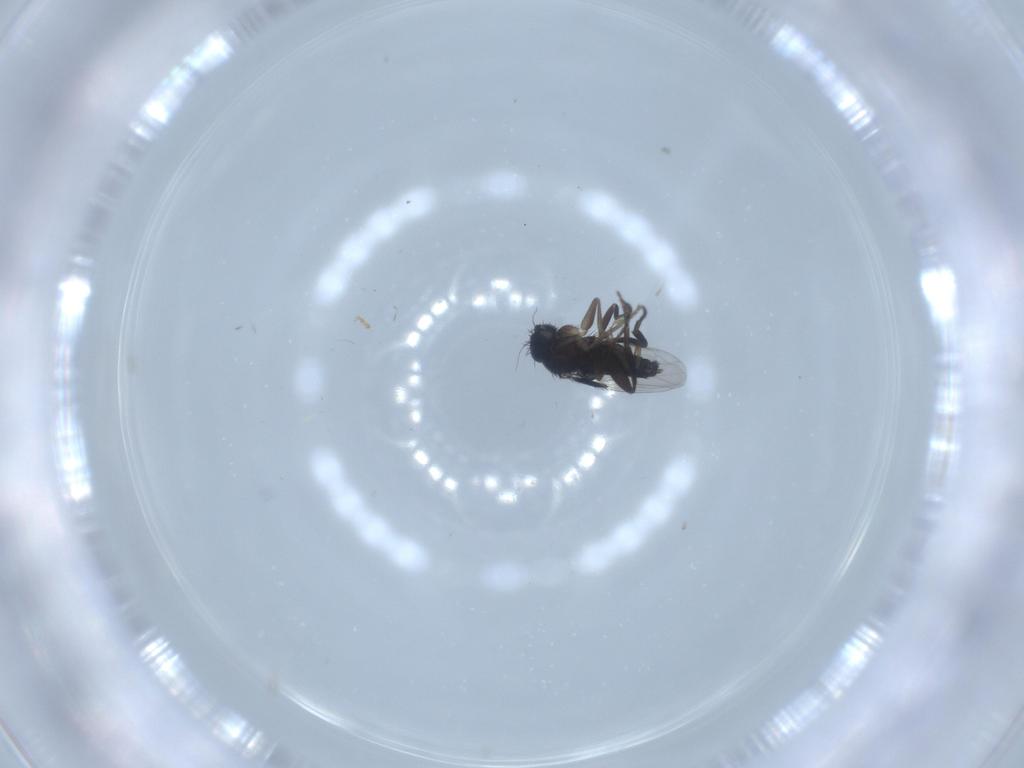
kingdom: Animalia
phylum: Arthropoda
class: Insecta
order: Diptera
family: Phoridae
